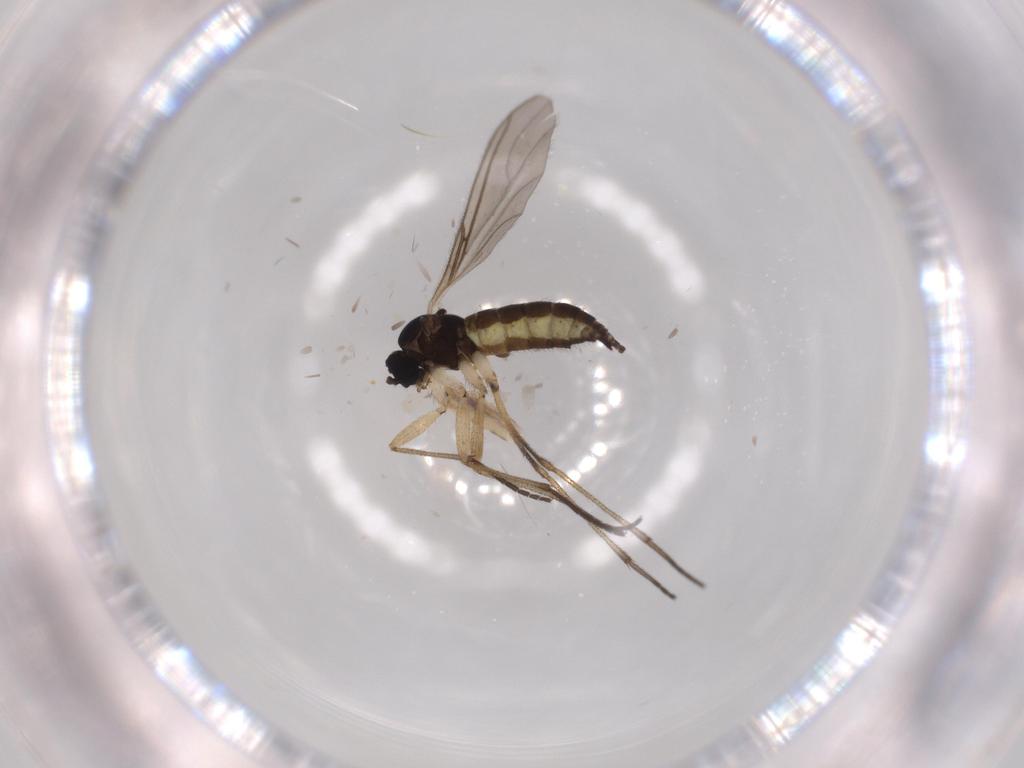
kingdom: Animalia
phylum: Arthropoda
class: Insecta
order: Diptera
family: Sciaridae
